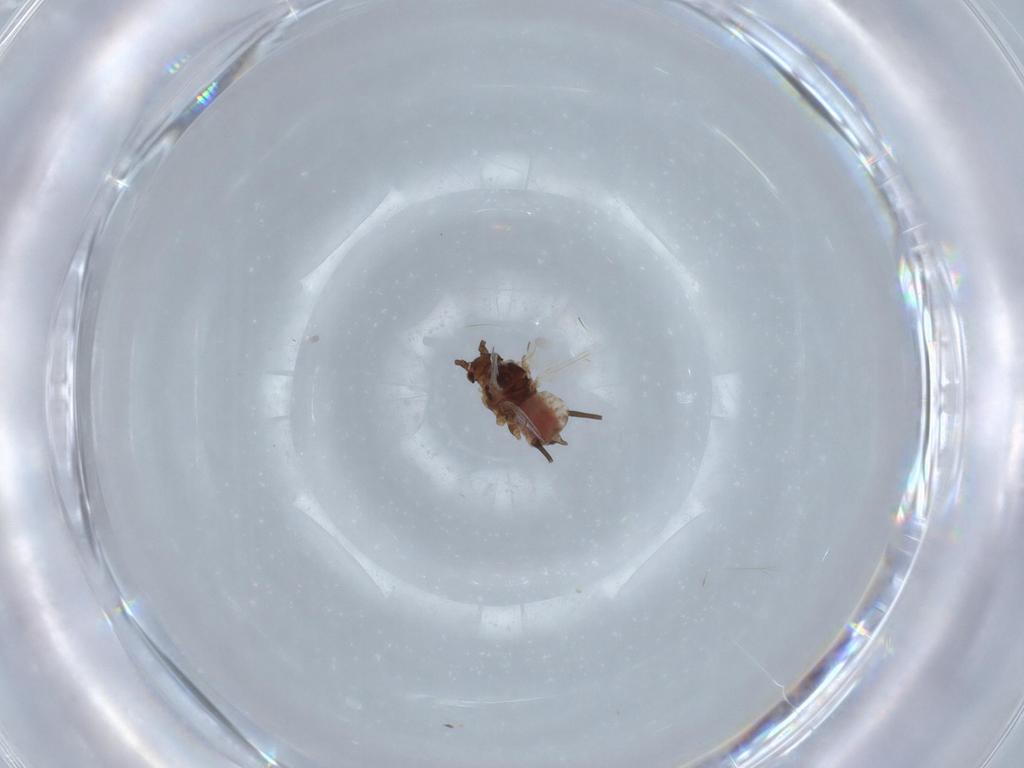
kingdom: Animalia
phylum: Arthropoda
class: Insecta
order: Hemiptera
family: Aphididae
